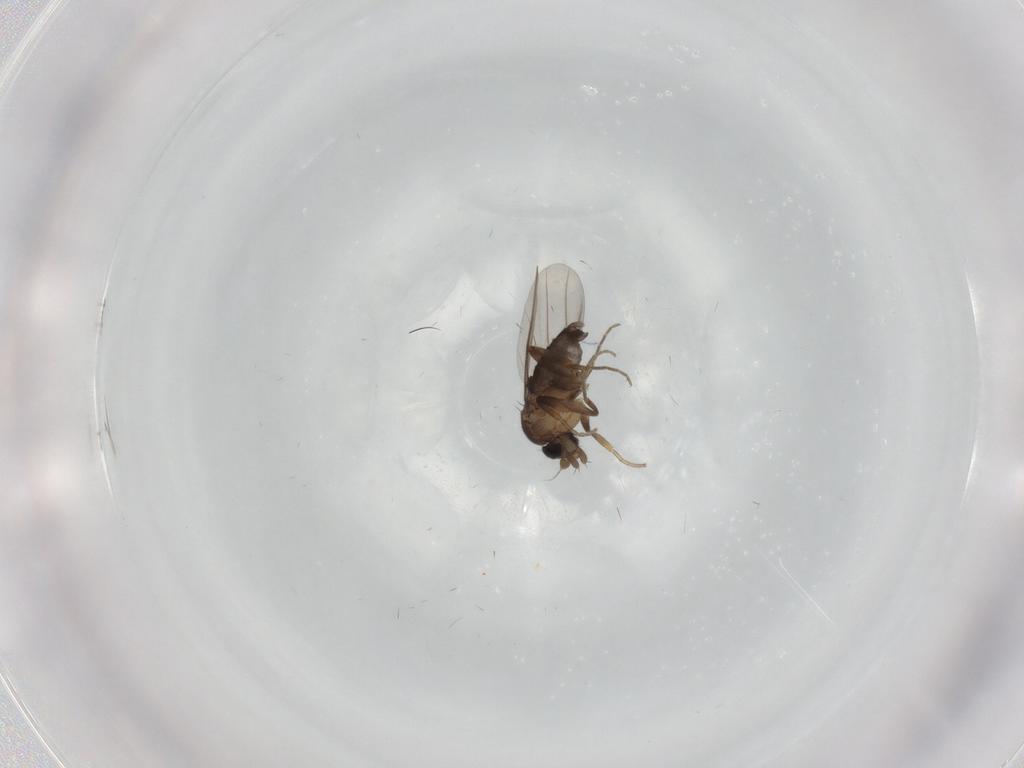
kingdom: Animalia
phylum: Arthropoda
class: Insecta
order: Diptera
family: Phoridae
